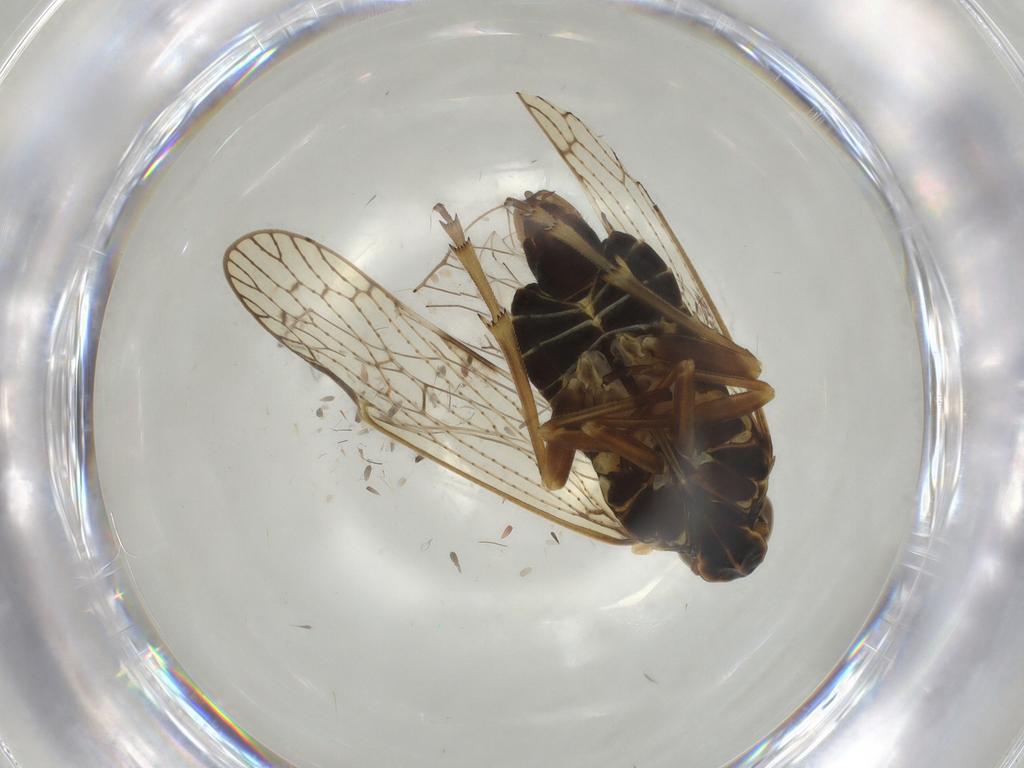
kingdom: Animalia
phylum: Arthropoda
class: Insecta
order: Hemiptera
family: Cixiidae
